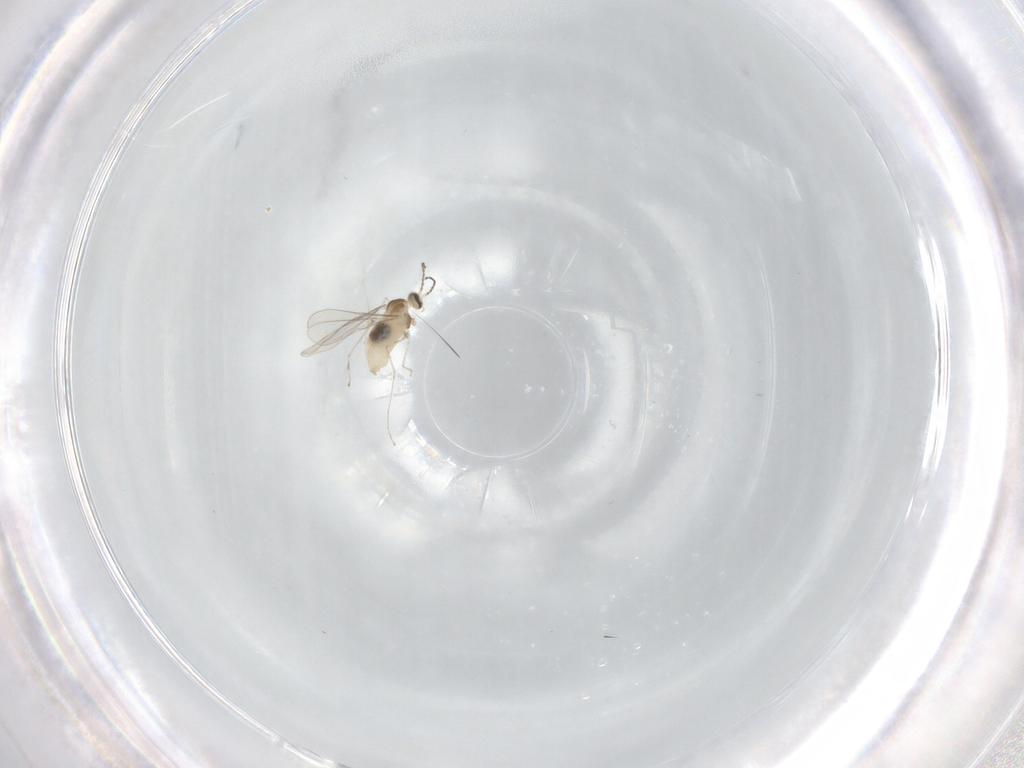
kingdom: Animalia
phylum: Arthropoda
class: Insecta
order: Diptera
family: Cecidomyiidae
